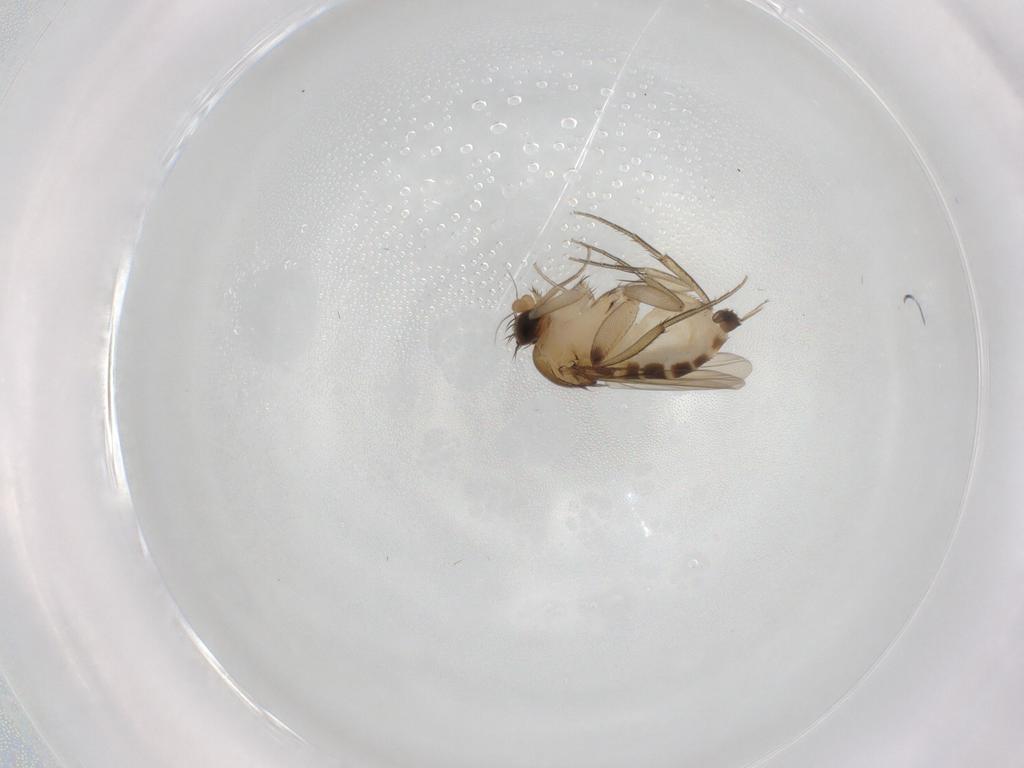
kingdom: Animalia
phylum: Arthropoda
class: Insecta
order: Diptera
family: Phoridae
